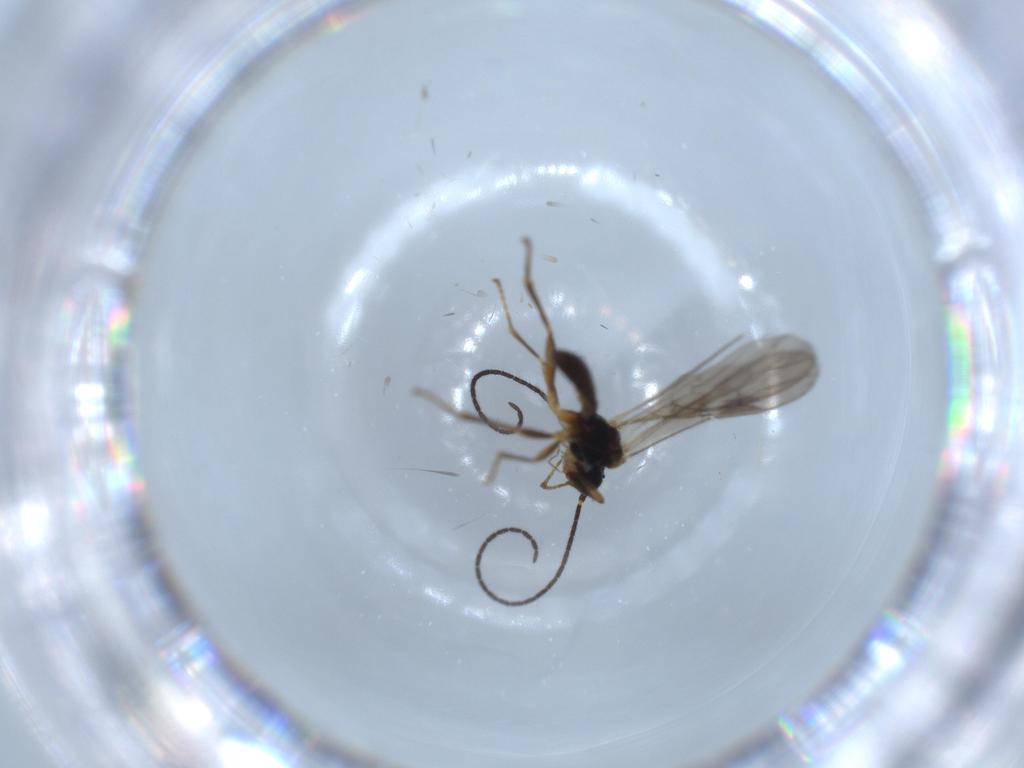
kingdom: Animalia
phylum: Arthropoda
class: Insecta
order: Hymenoptera
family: Braconidae
